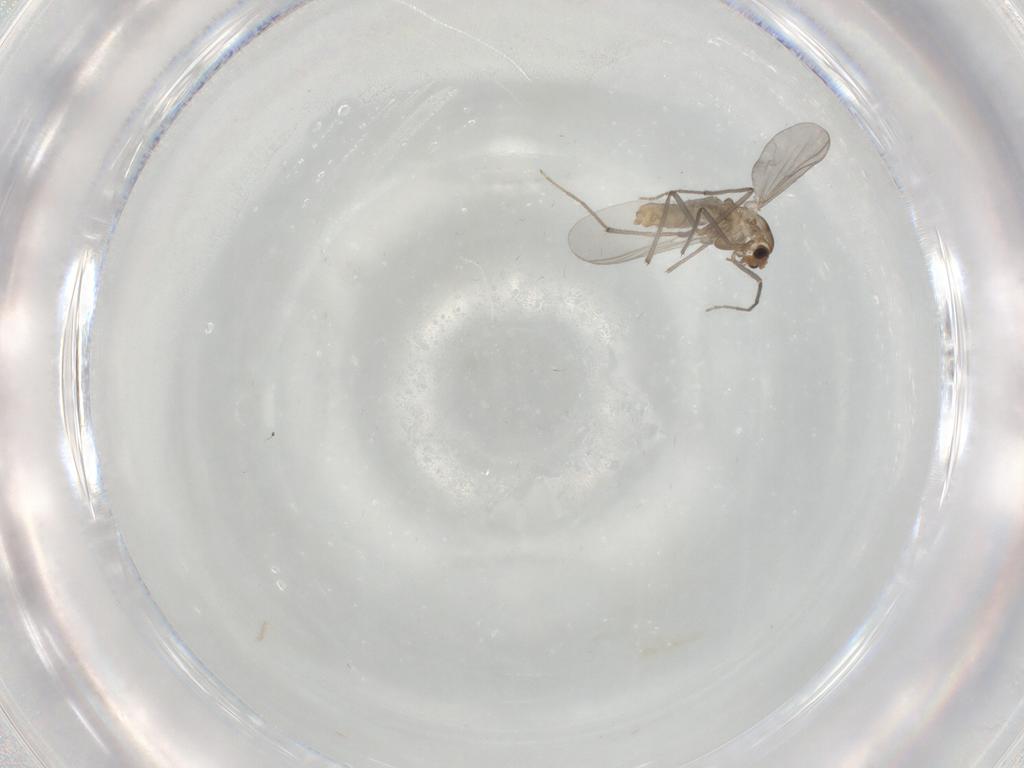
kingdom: Animalia
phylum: Arthropoda
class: Insecta
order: Diptera
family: Chironomidae
